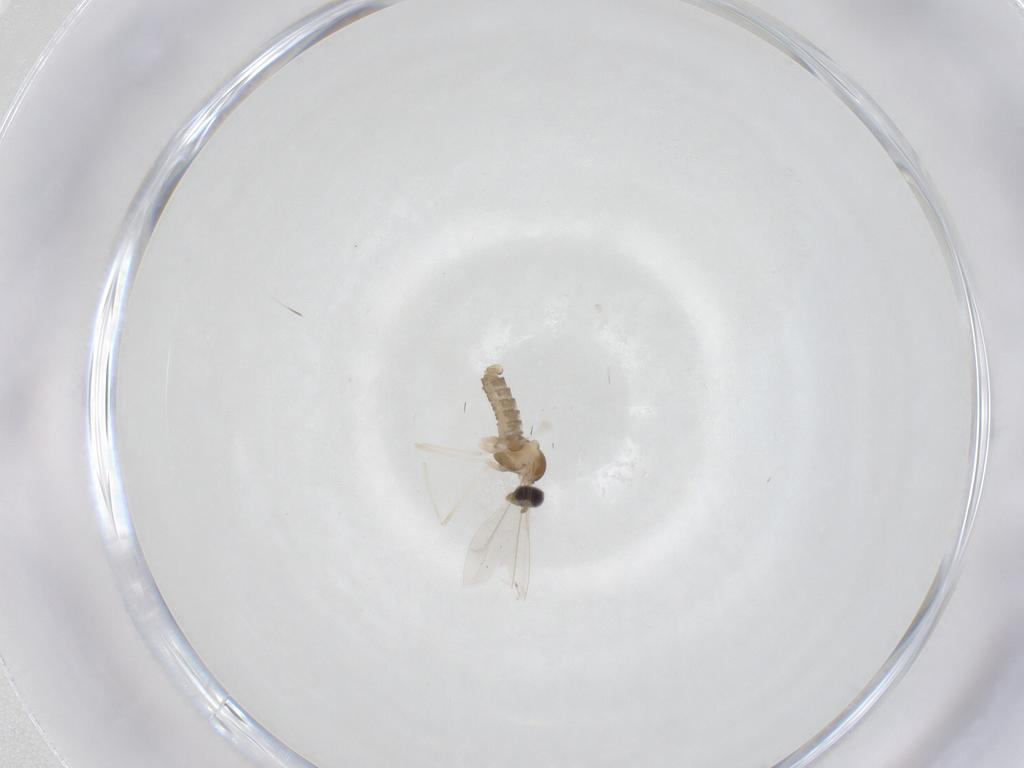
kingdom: Animalia
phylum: Arthropoda
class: Insecta
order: Diptera
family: Cecidomyiidae
